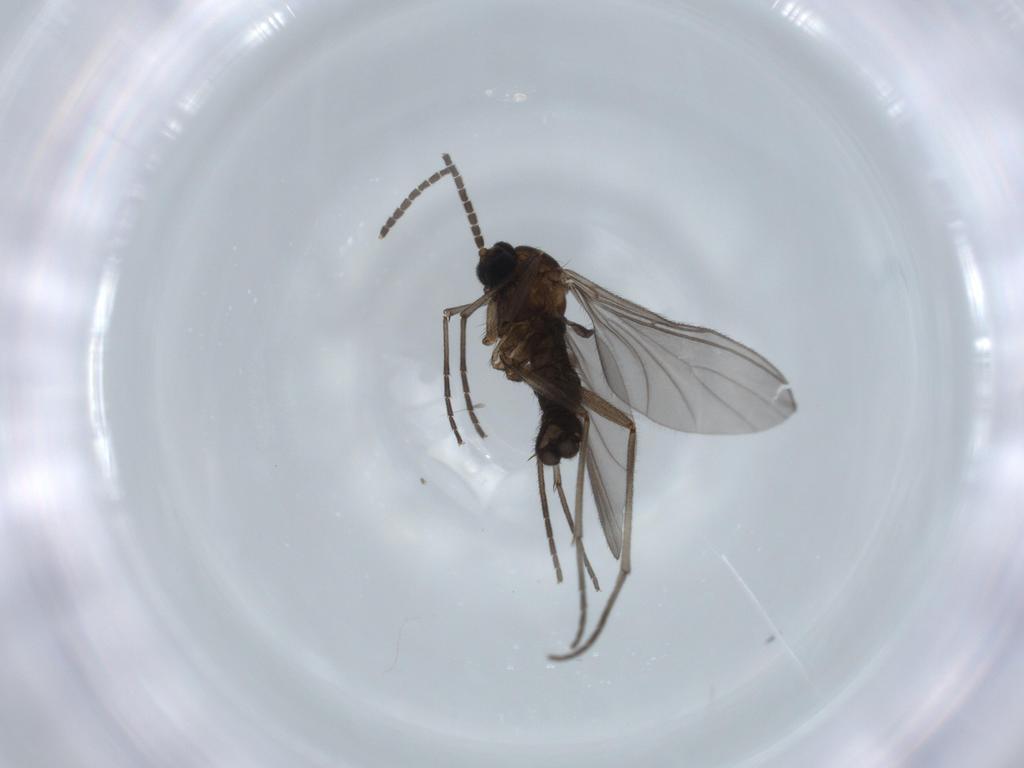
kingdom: Animalia
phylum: Arthropoda
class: Insecta
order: Diptera
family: Sciaridae
